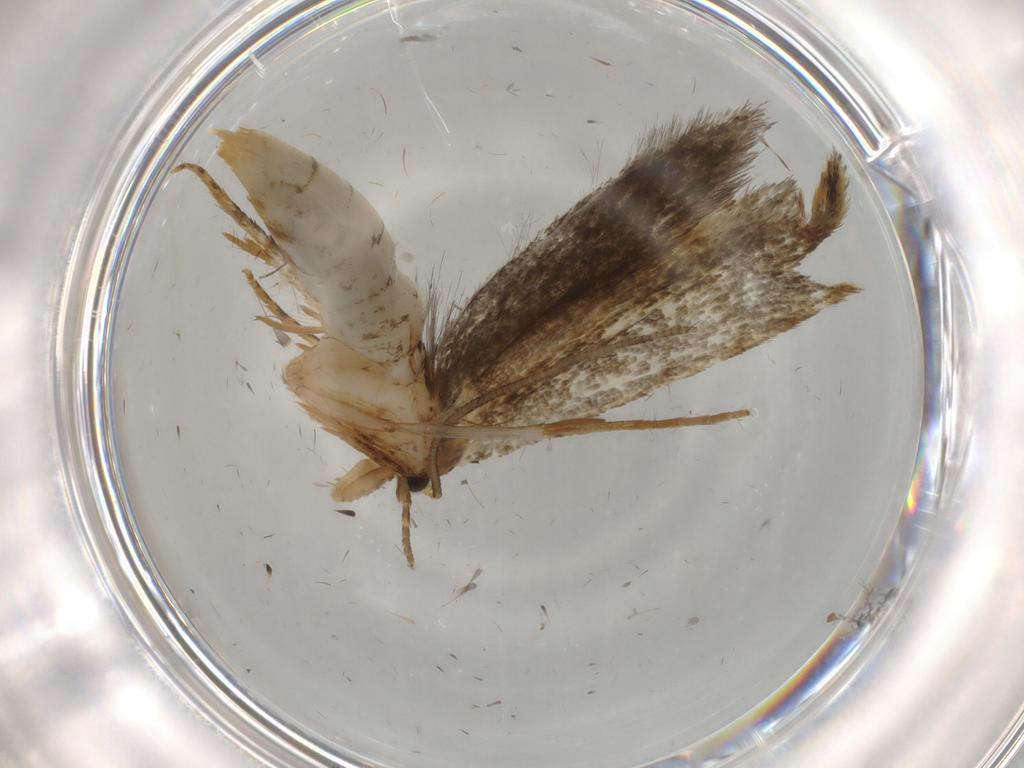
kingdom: Animalia
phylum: Arthropoda
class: Insecta
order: Lepidoptera
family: Tineidae
